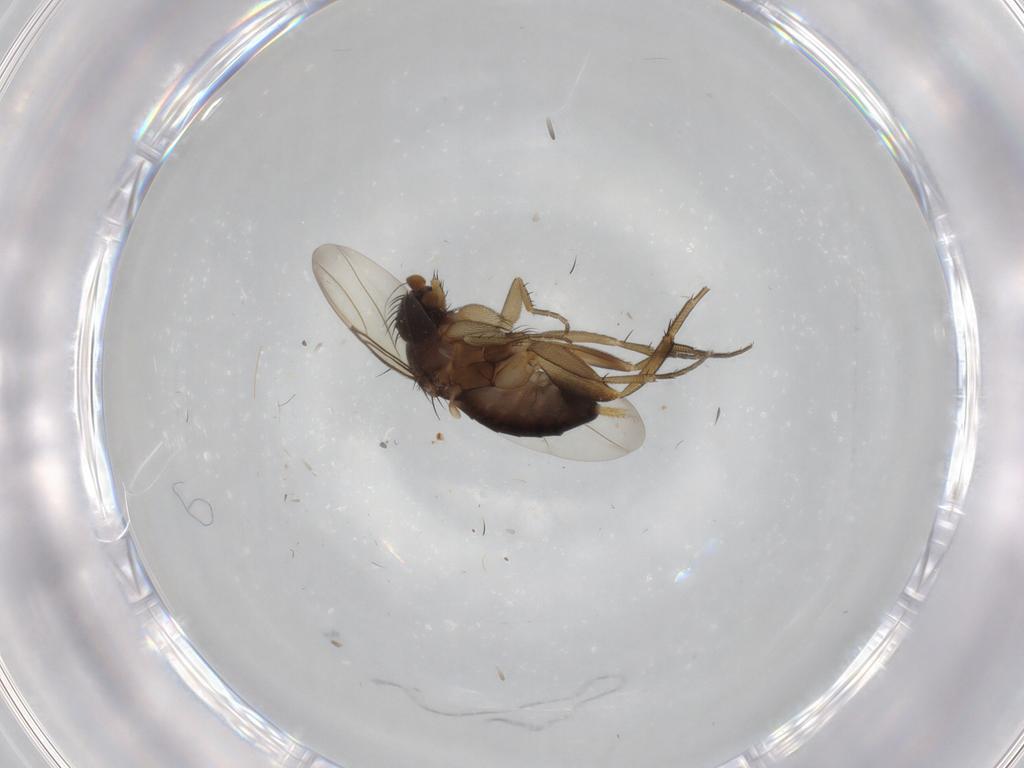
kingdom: Animalia
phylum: Arthropoda
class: Insecta
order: Diptera
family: Phoridae
